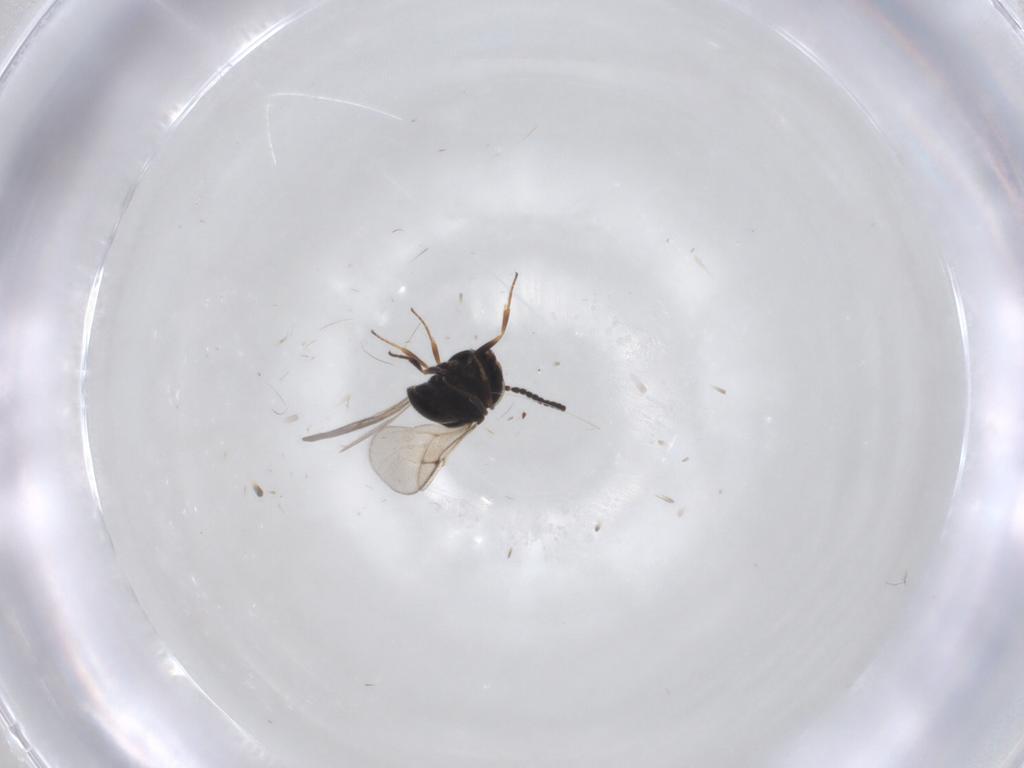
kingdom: Animalia
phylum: Arthropoda
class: Insecta
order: Hymenoptera
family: Scelionidae
